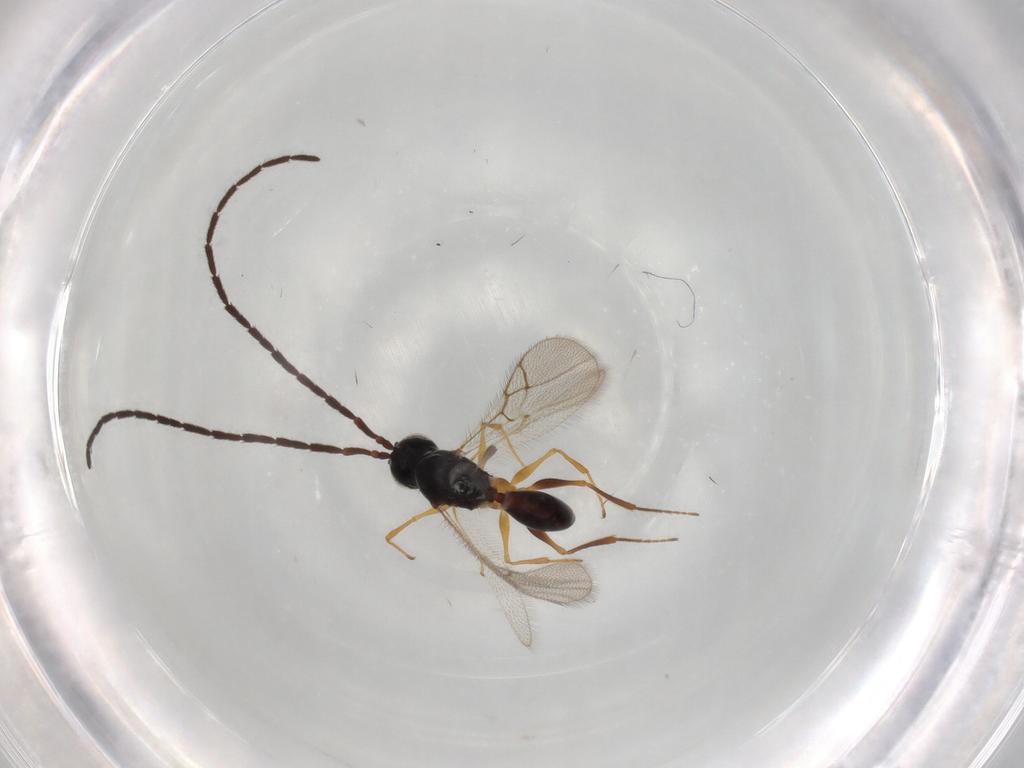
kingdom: Animalia
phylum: Arthropoda
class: Insecta
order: Hymenoptera
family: Figitidae
